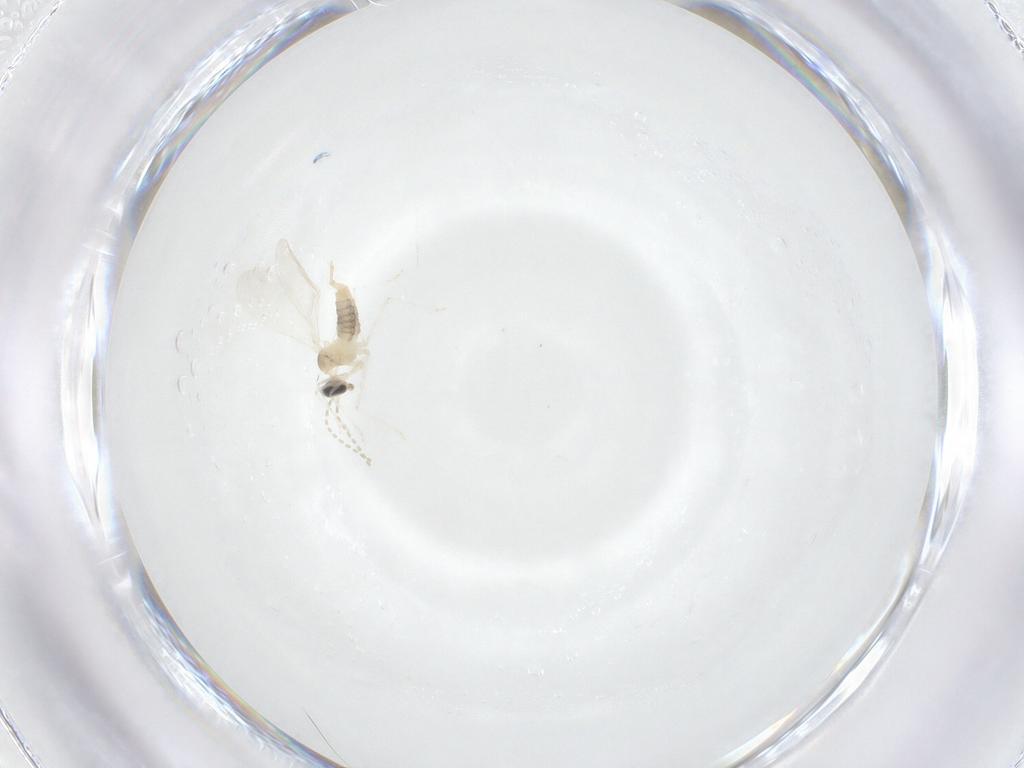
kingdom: Animalia
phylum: Arthropoda
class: Insecta
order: Diptera
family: Cecidomyiidae
